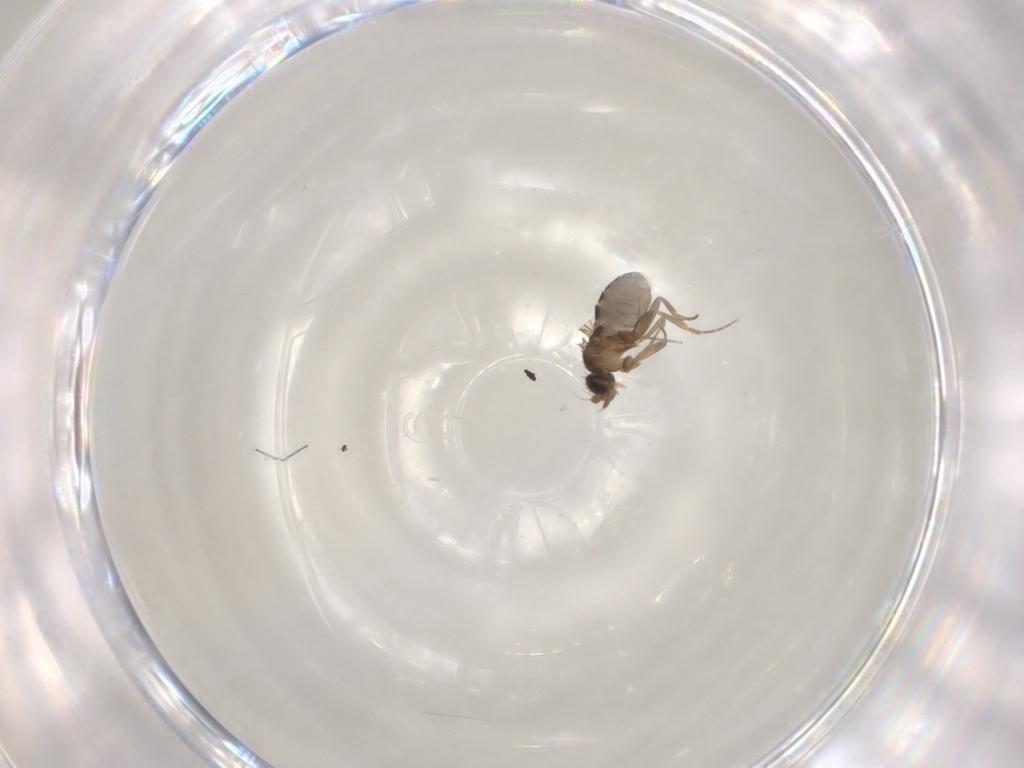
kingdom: Animalia
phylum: Arthropoda
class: Insecta
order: Diptera
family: Phoridae
